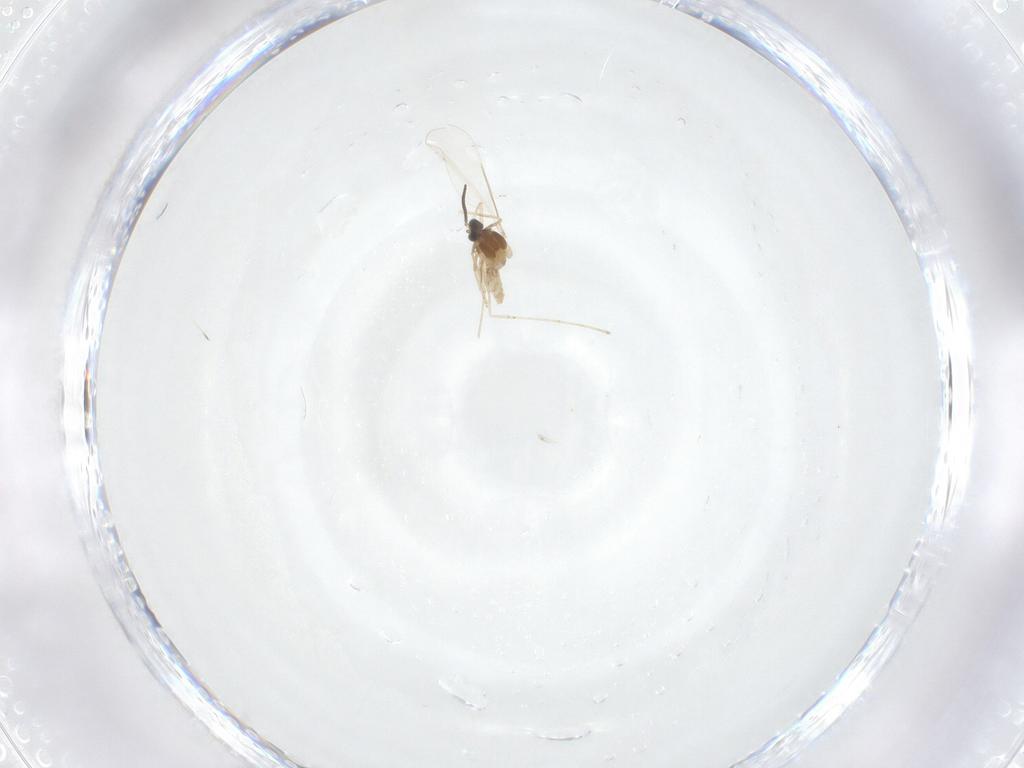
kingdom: Animalia
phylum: Arthropoda
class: Insecta
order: Diptera
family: Cecidomyiidae
